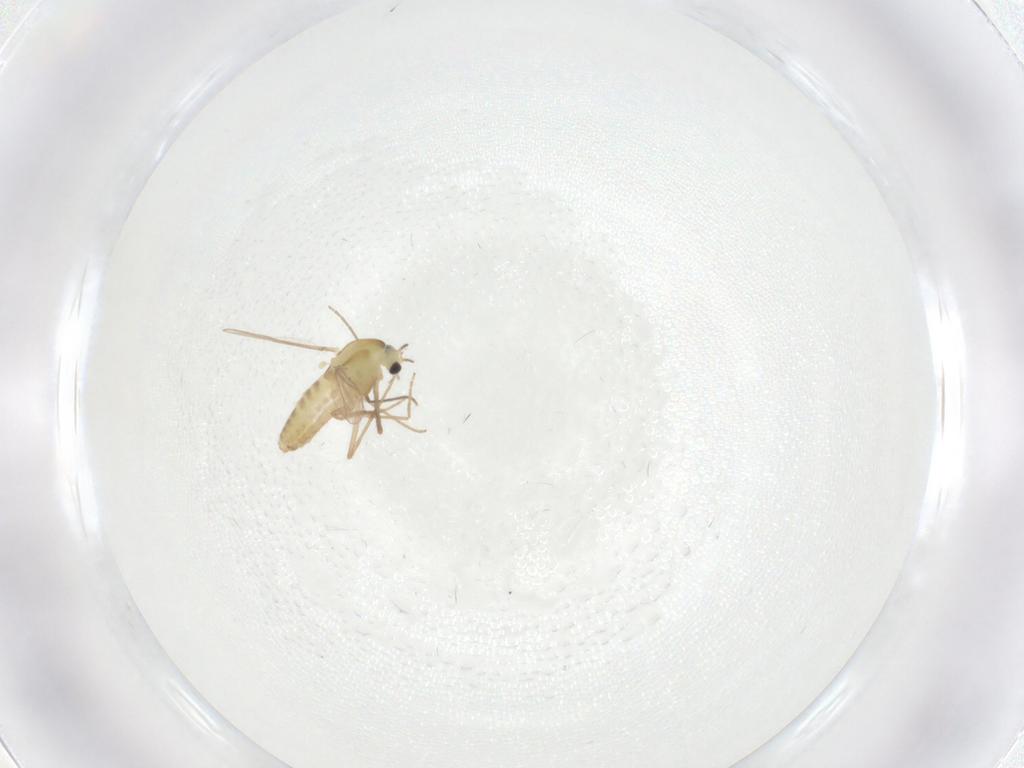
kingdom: Animalia
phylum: Arthropoda
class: Insecta
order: Diptera
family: Chironomidae
